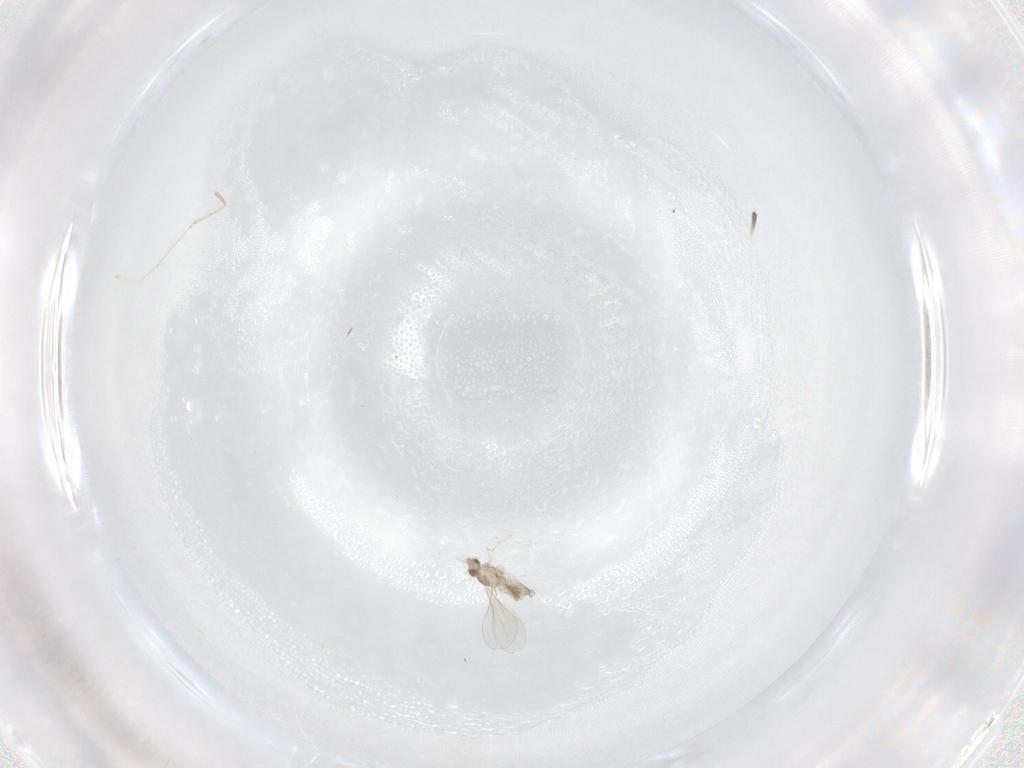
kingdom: Animalia
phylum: Arthropoda
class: Insecta
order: Diptera
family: Cecidomyiidae
